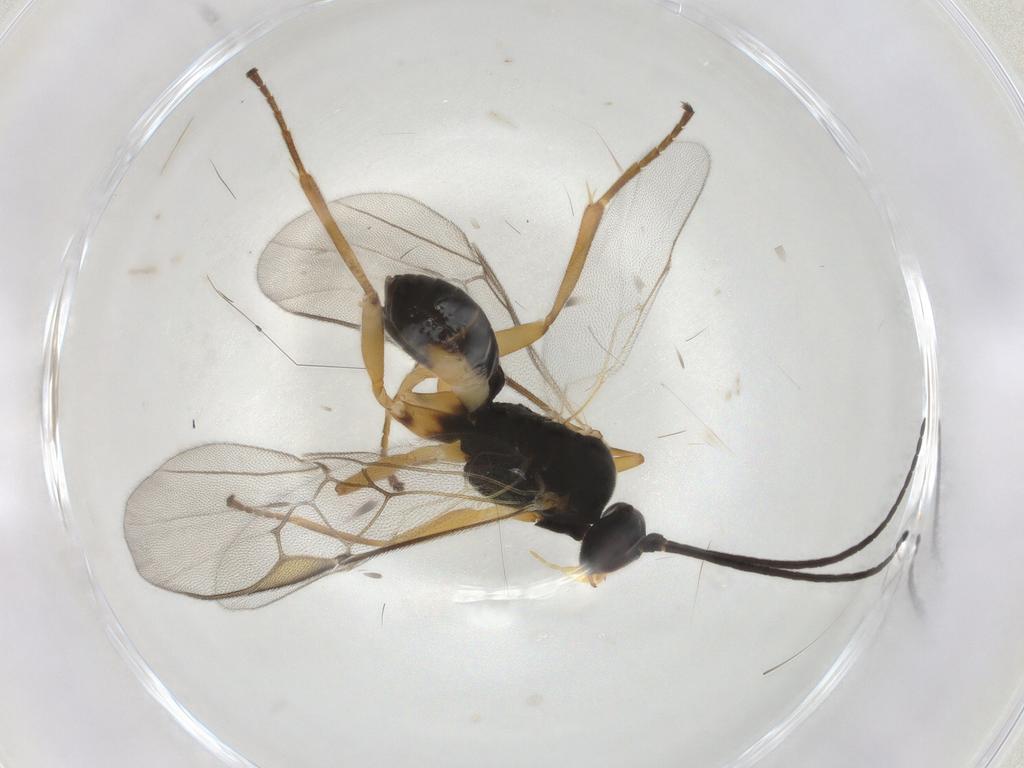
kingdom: Animalia
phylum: Arthropoda
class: Insecta
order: Hymenoptera
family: Braconidae
